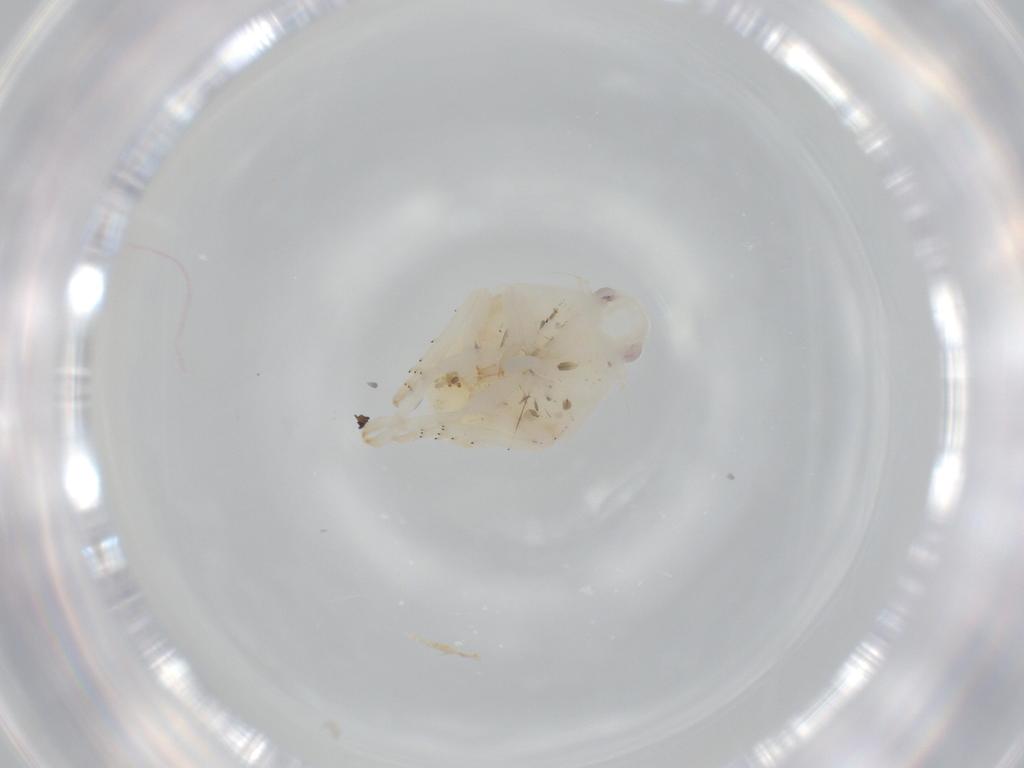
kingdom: Animalia
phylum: Arthropoda
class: Insecta
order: Hemiptera
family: Flatidae
